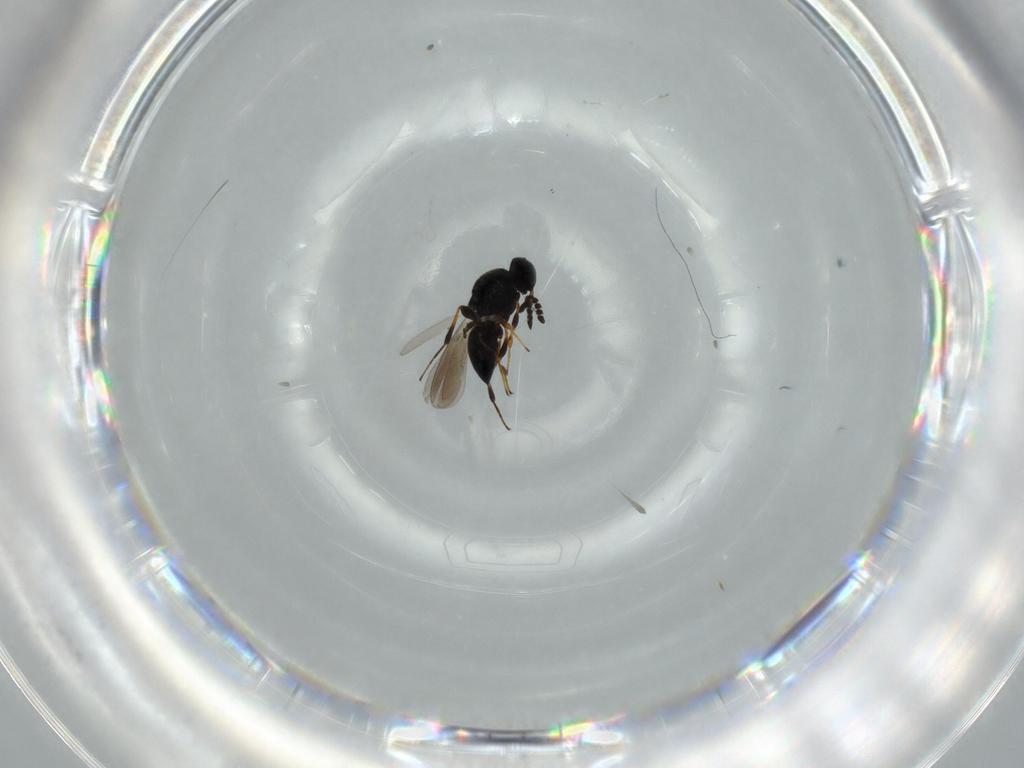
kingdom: Animalia
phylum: Arthropoda
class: Insecta
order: Hymenoptera
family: Platygastridae
